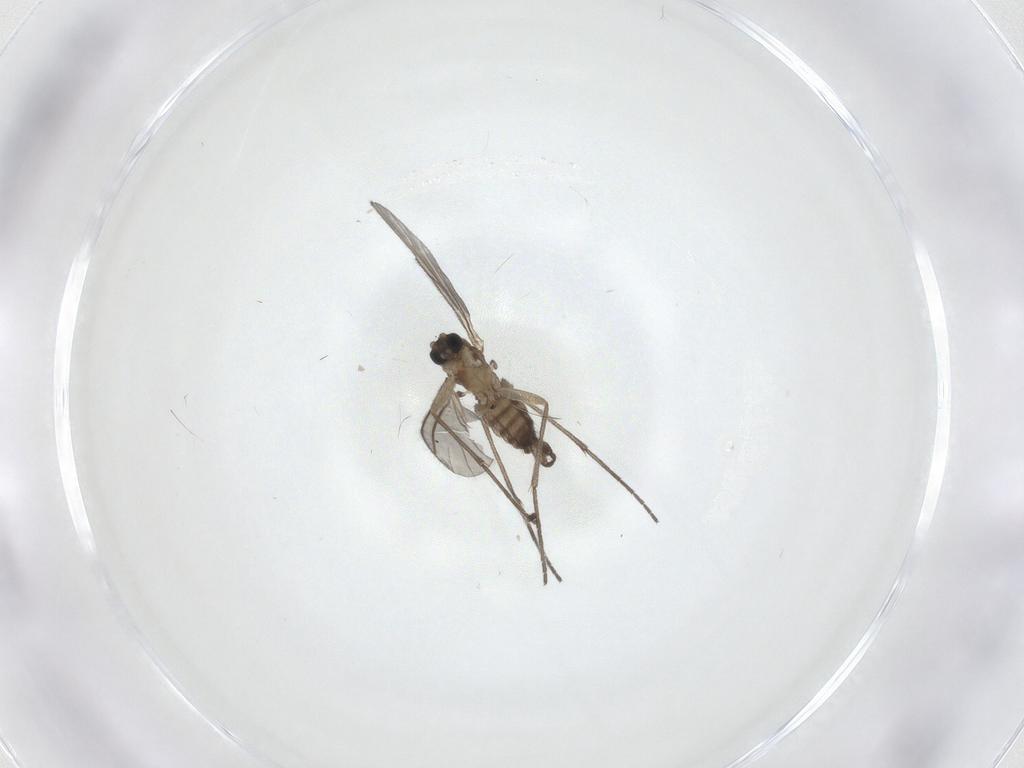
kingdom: Animalia
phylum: Arthropoda
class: Insecta
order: Diptera
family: Sciaridae
